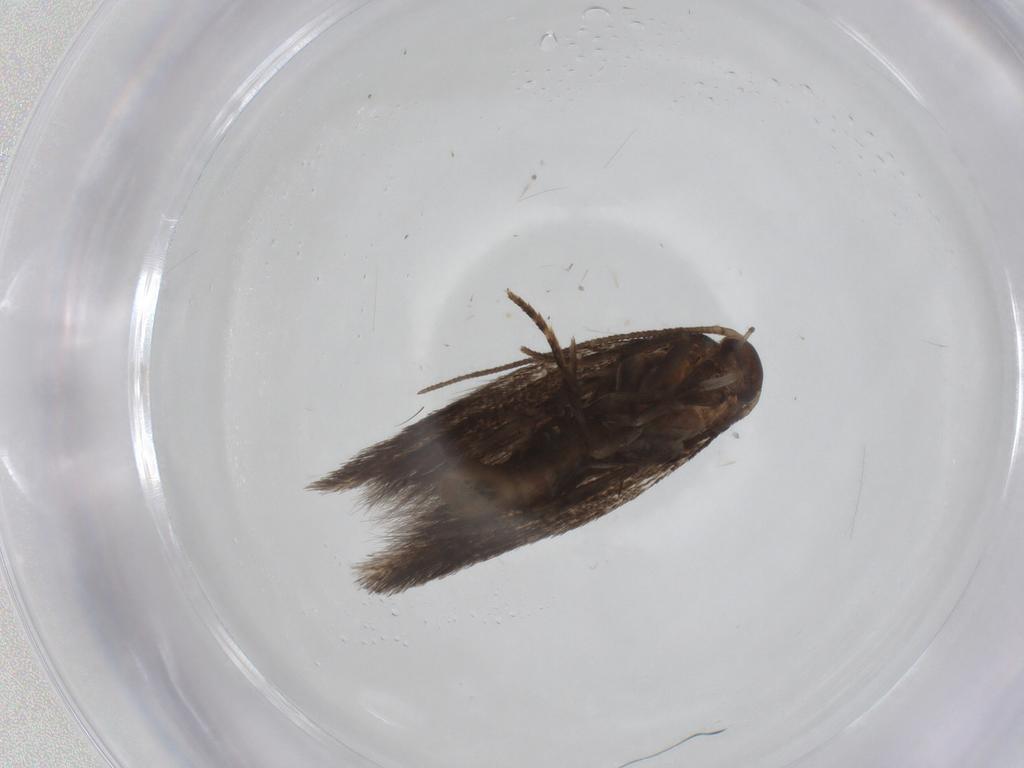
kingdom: Animalia
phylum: Arthropoda
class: Insecta
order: Lepidoptera
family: Elachistidae
